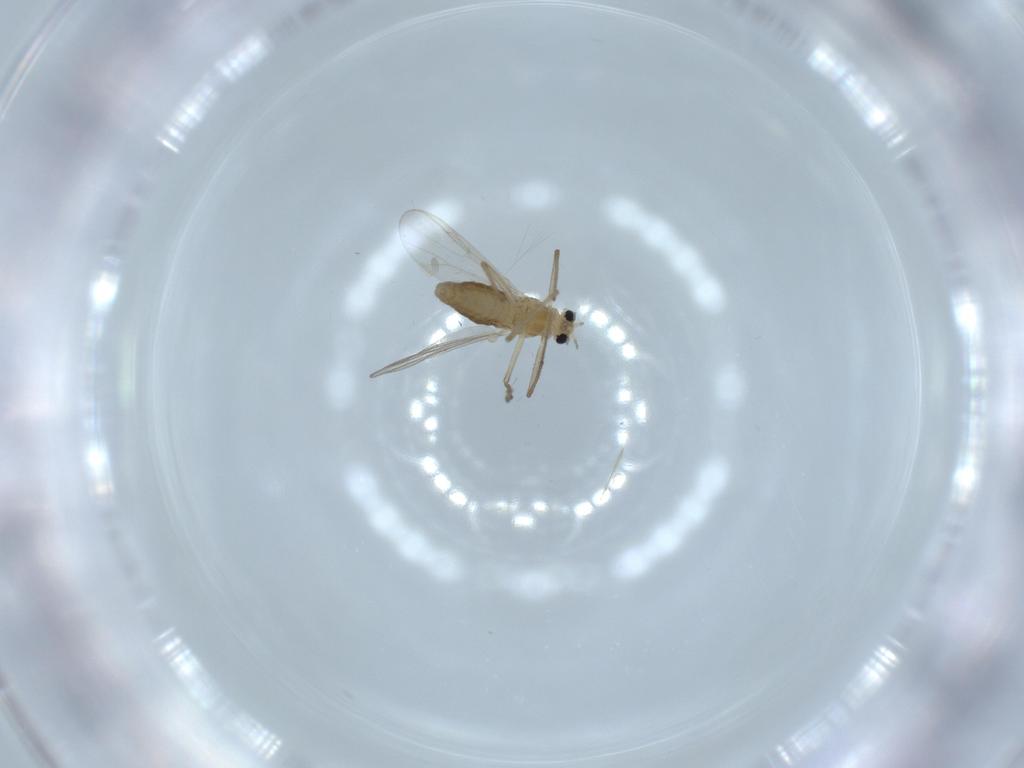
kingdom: Animalia
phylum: Arthropoda
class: Insecta
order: Diptera
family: Chironomidae
